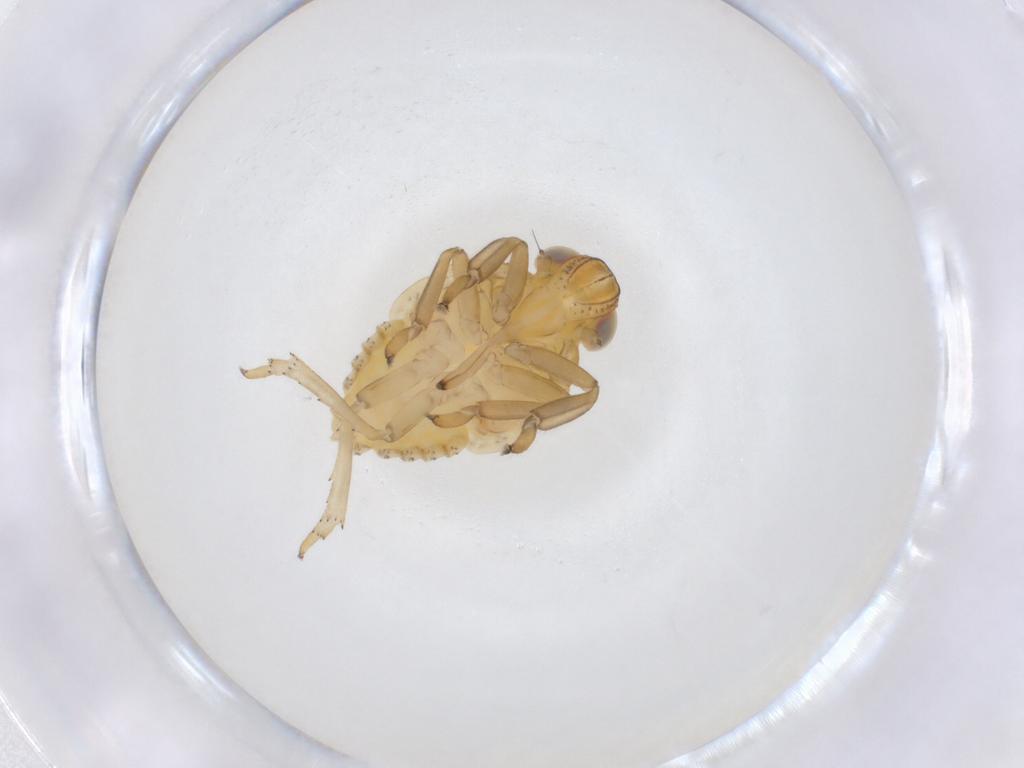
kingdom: Animalia
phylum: Arthropoda
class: Insecta
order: Hemiptera
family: Issidae
